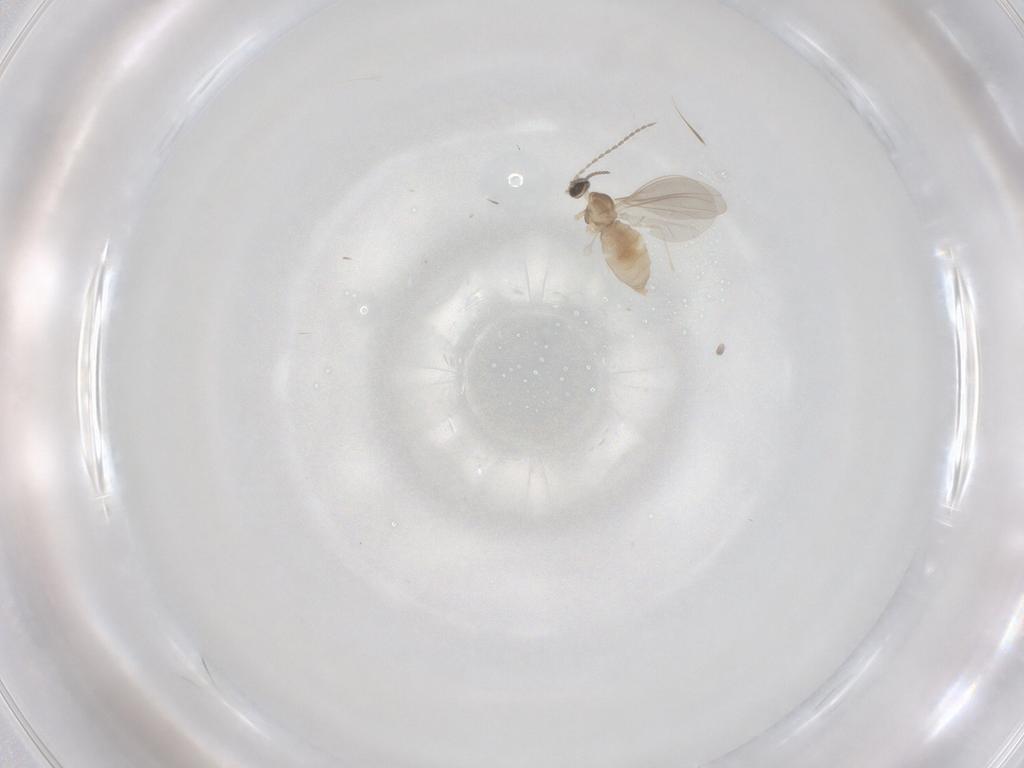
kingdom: Animalia
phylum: Arthropoda
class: Insecta
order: Diptera
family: Cecidomyiidae
